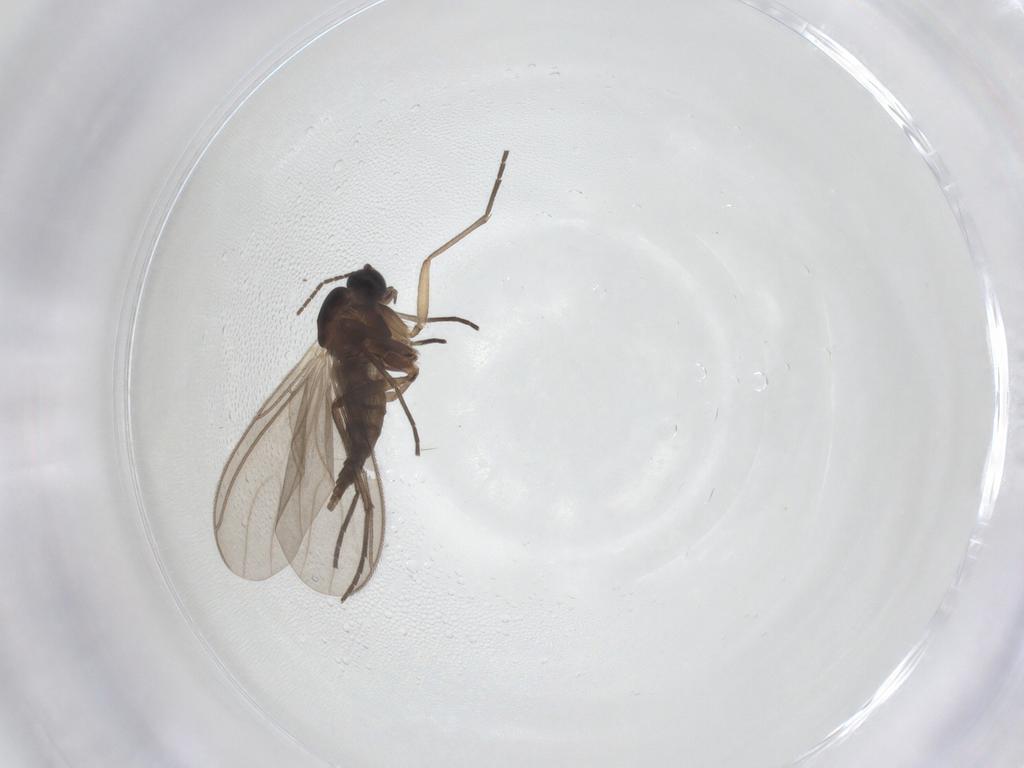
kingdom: Animalia
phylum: Arthropoda
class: Insecta
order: Diptera
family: Sciaridae
